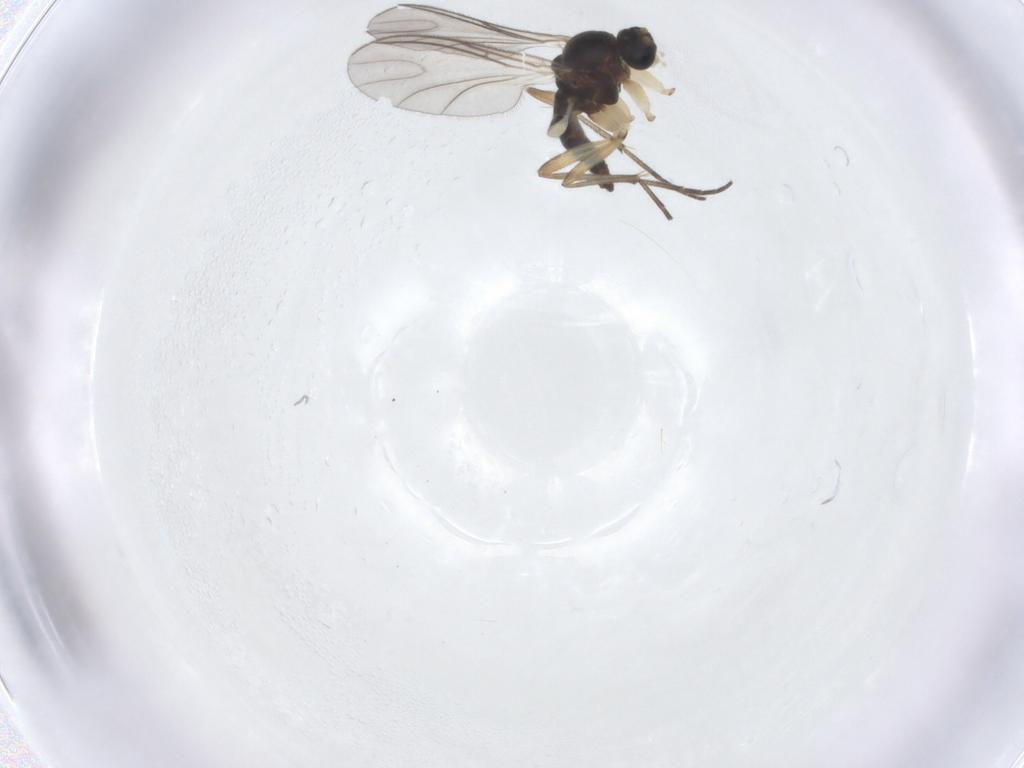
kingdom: Animalia
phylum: Arthropoda
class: Insecta
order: Diptera
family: Sciaridae
